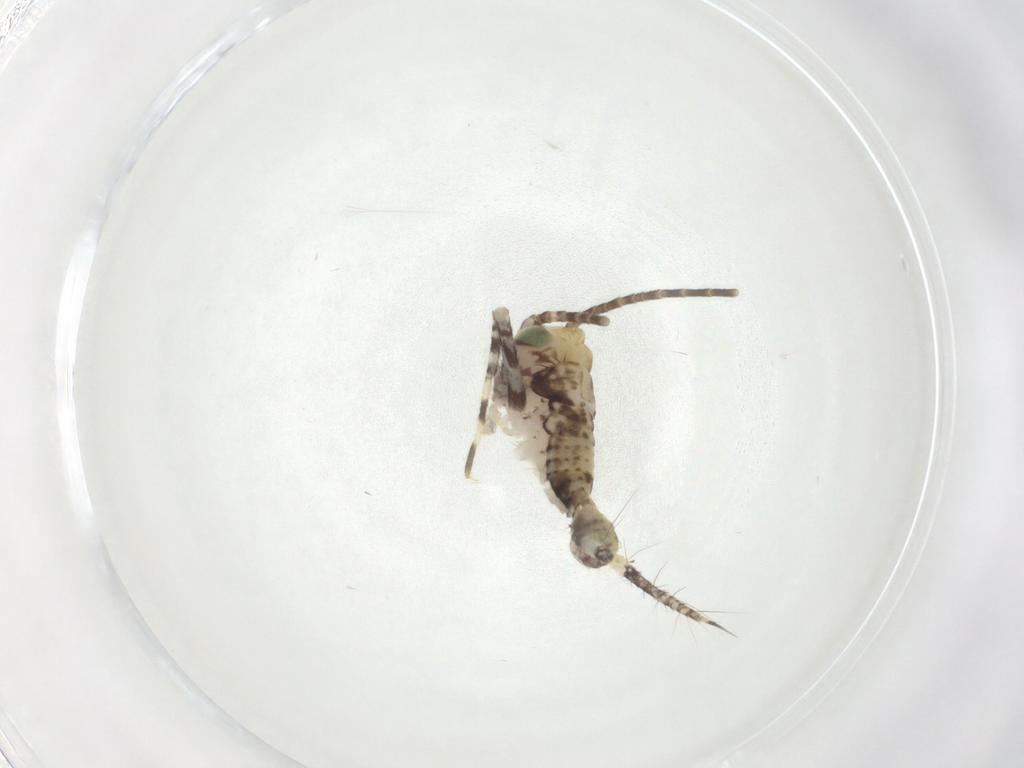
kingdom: Animalia
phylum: Arthropoda
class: Insecta
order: Orthoptera
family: Gryllidae
